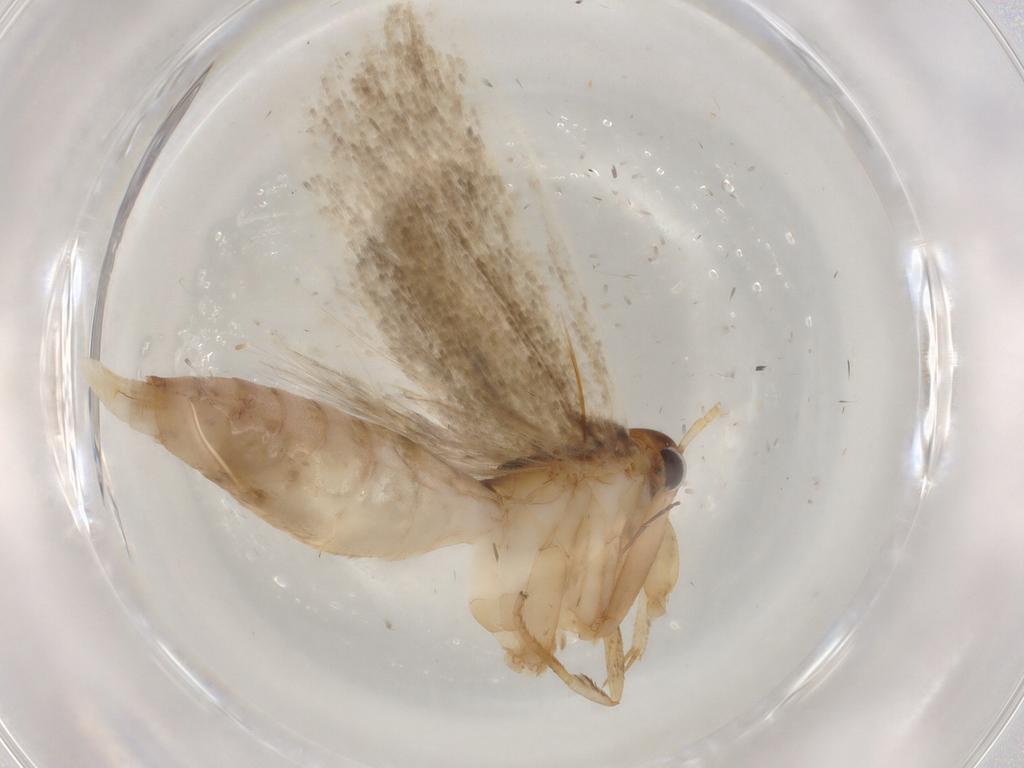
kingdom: Animalia
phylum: Arthropoda
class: Insecta
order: Lepidoptera
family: Gelechiidae
